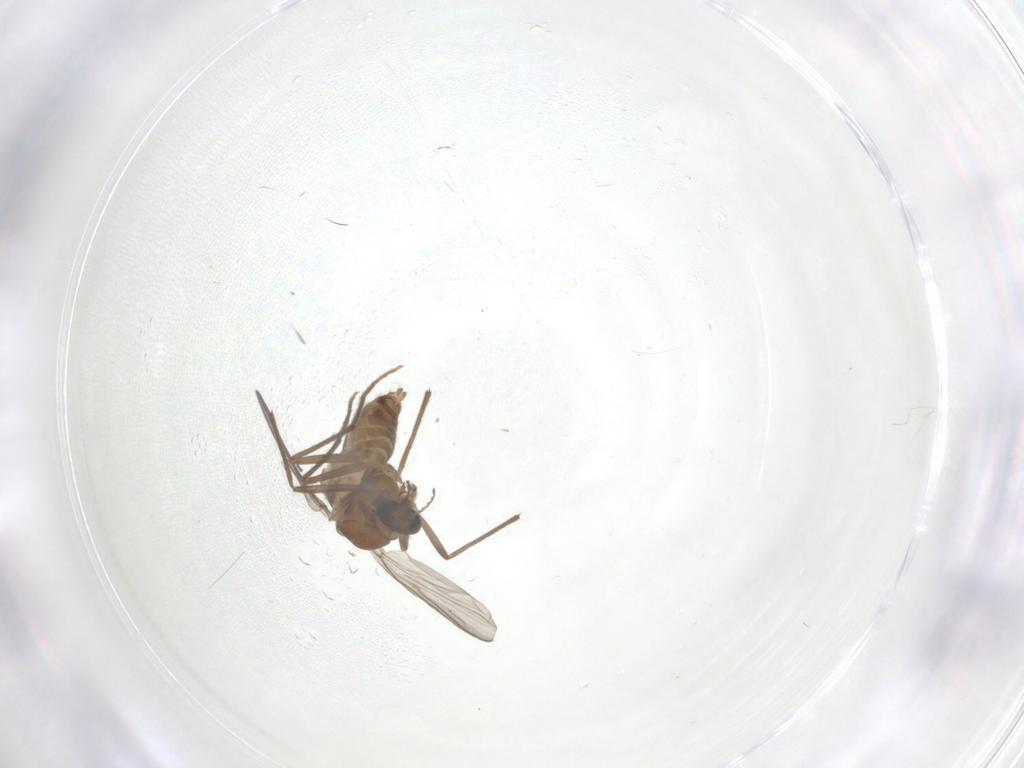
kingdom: Animalia
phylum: Arthropoda
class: Insecta
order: Diptera
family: Chironomidae
